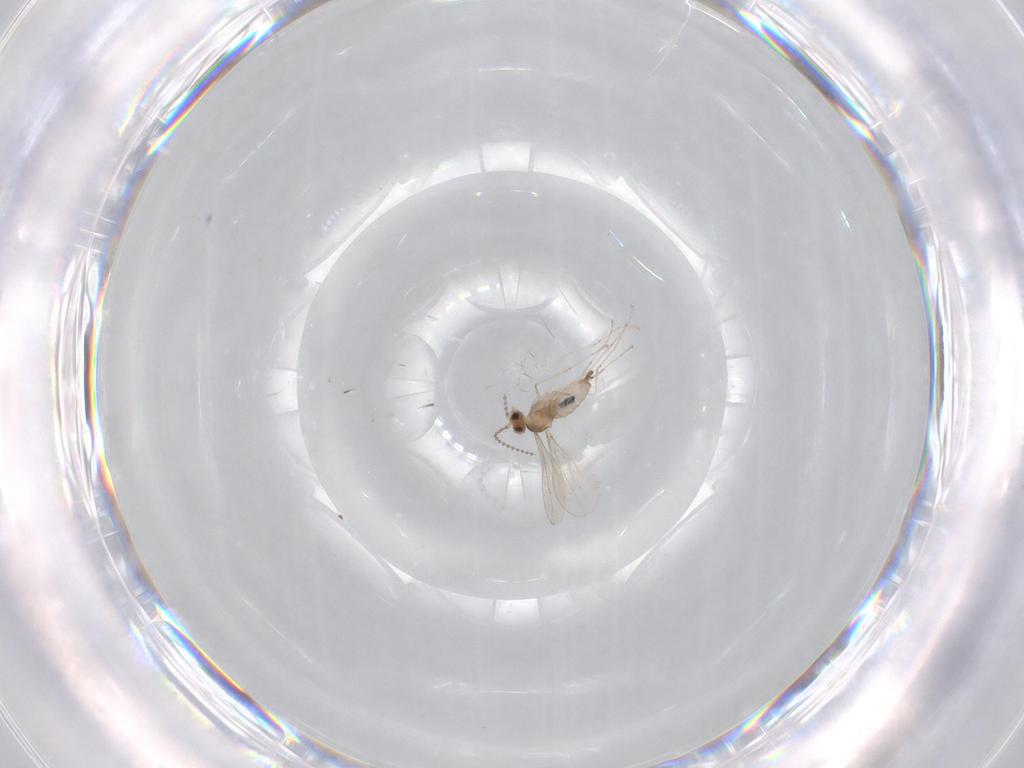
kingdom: Animalia
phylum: Arthropoda
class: Insecta
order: Diptera
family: Cecidomyiidae
